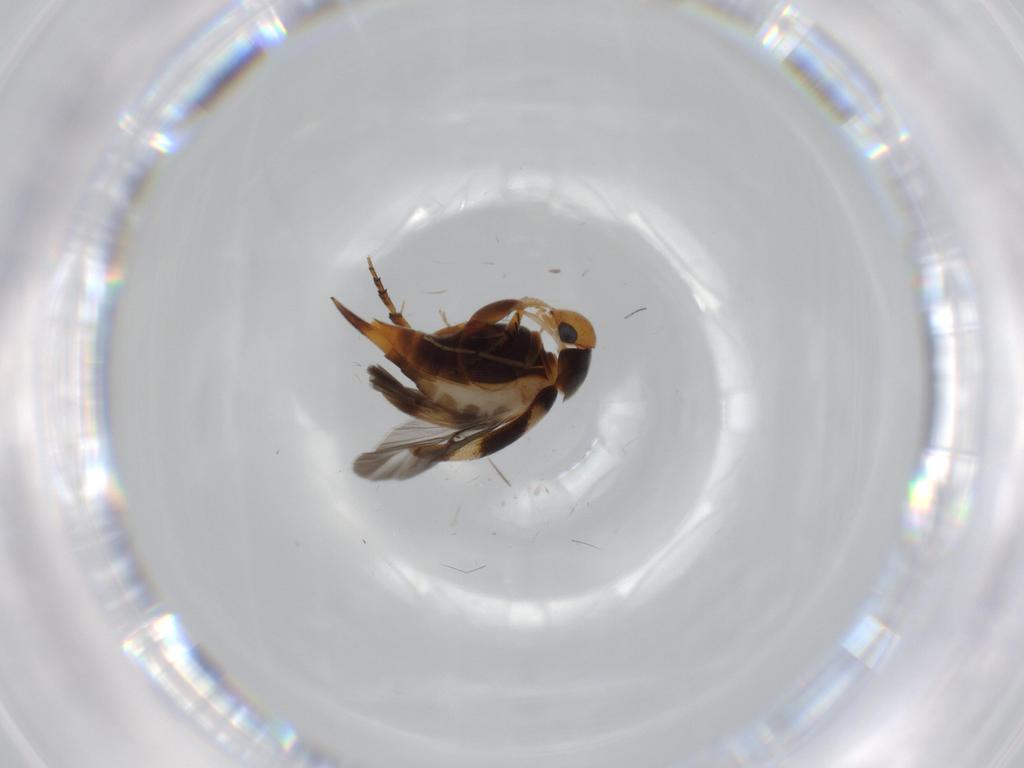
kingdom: Animalia
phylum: Arthropoda
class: Insecta
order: Coleoptera
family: Mordellidae
